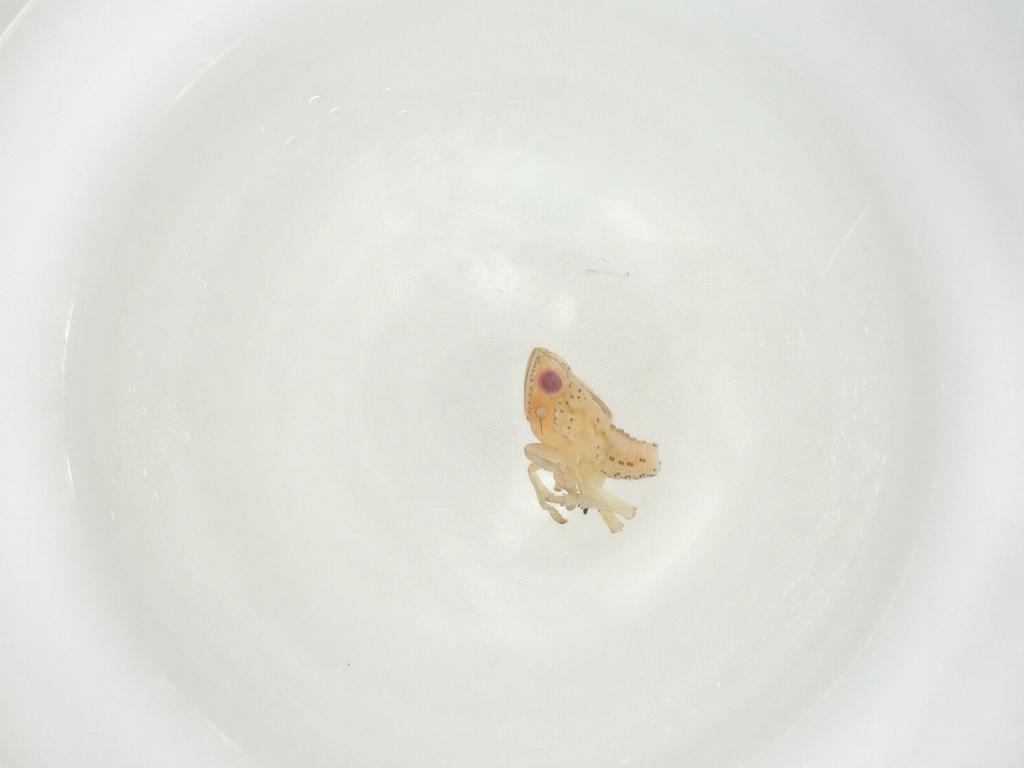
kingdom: Animalia
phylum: Arthropoda
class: Insecta
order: Hemiptera
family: Tropiduchidae
